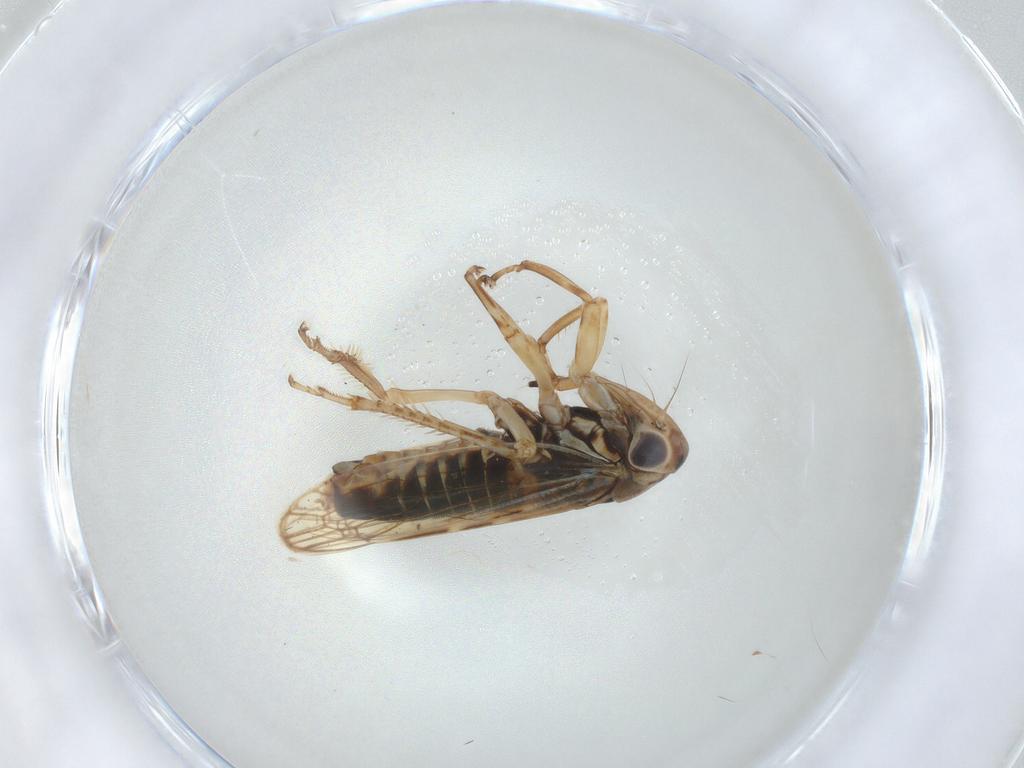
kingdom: Animalia
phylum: Arthropoda
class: Insecta
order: Hemiptera
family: Cicadellidae
